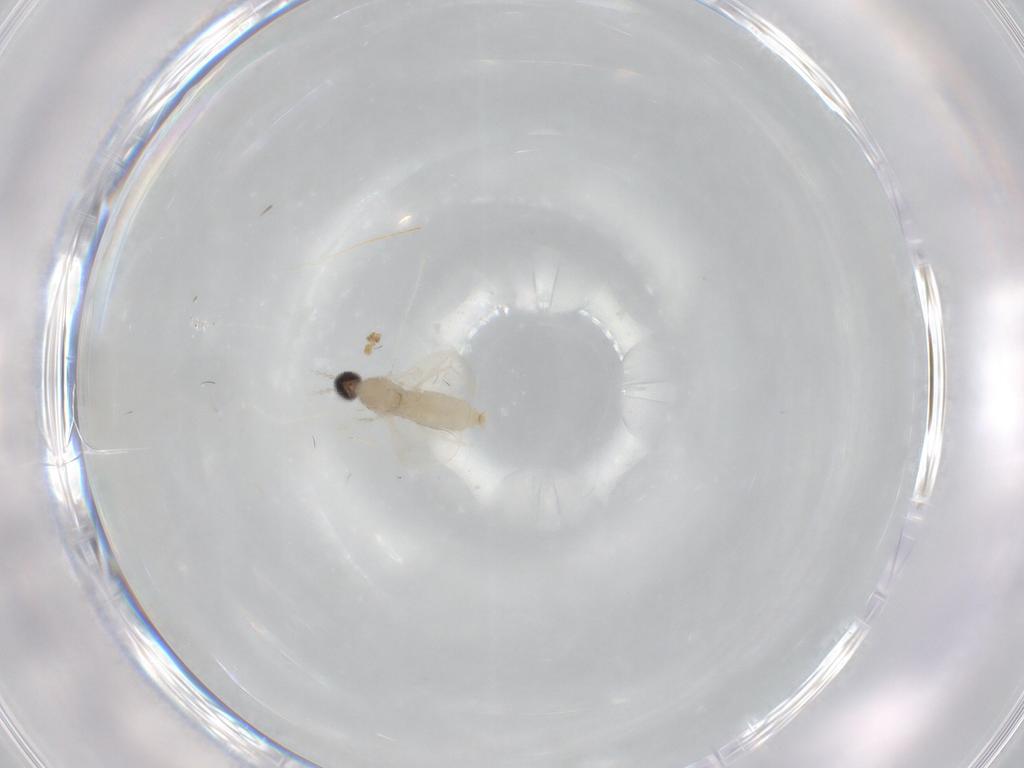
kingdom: Animalia
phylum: Arthropoda
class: Insecta
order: Diptera
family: Cecidomyiidae
